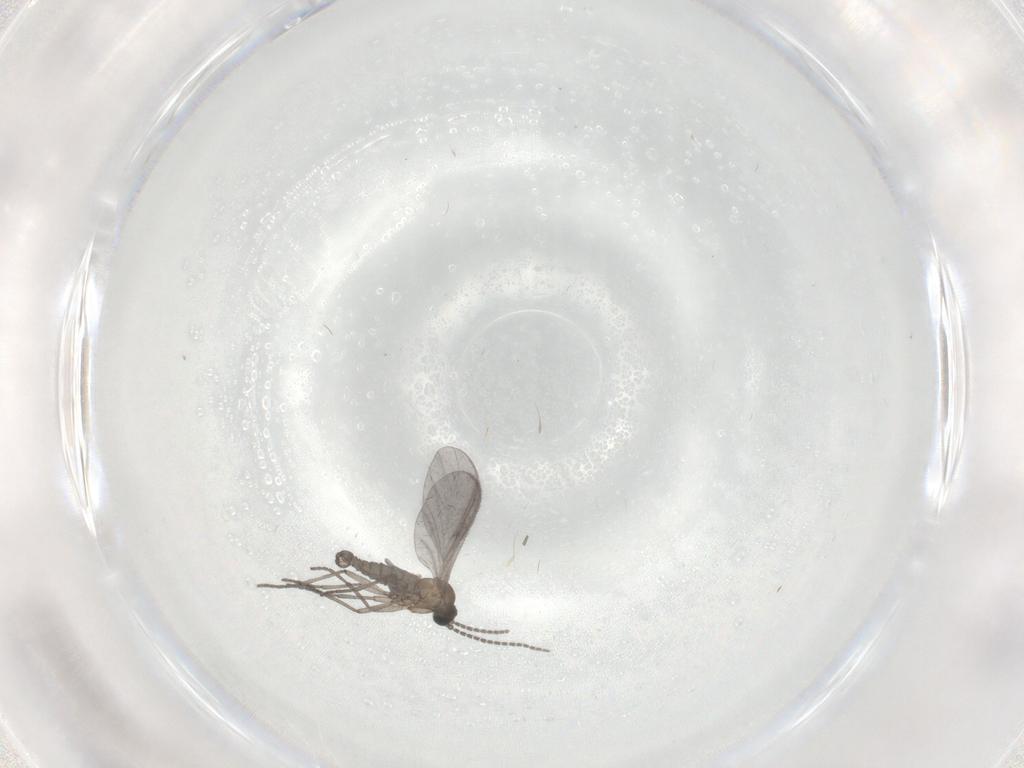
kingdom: Animalia
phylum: Arthropoda
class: Insecta
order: Diptera
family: Sciaridae
